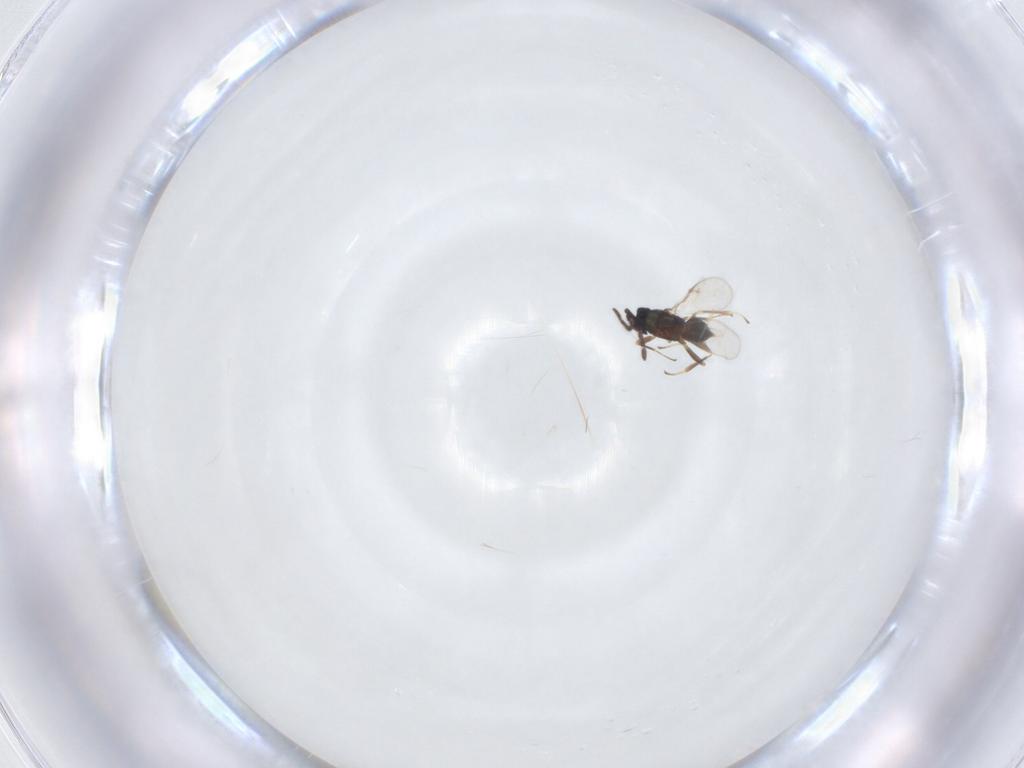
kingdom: Animalia
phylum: Arthropoda
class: Insecta
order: Hymenoptera
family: Encyrtidae
